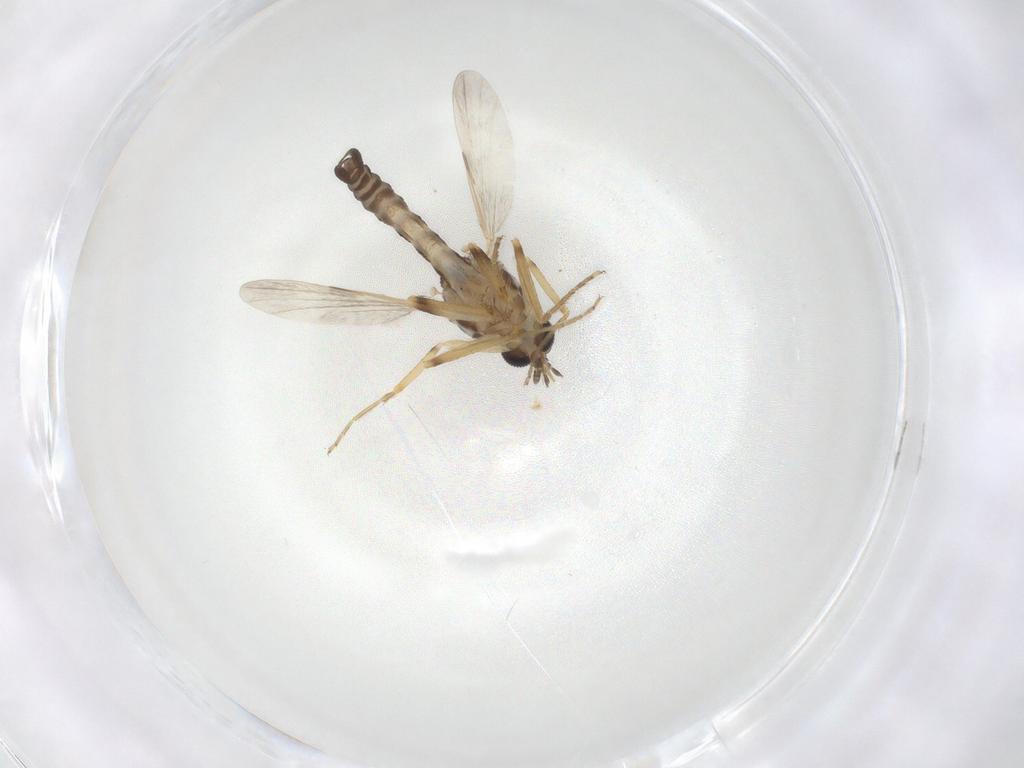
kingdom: Animalia
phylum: Arthropoda
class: Insecta
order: Diptera
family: Ceratopogonidae
